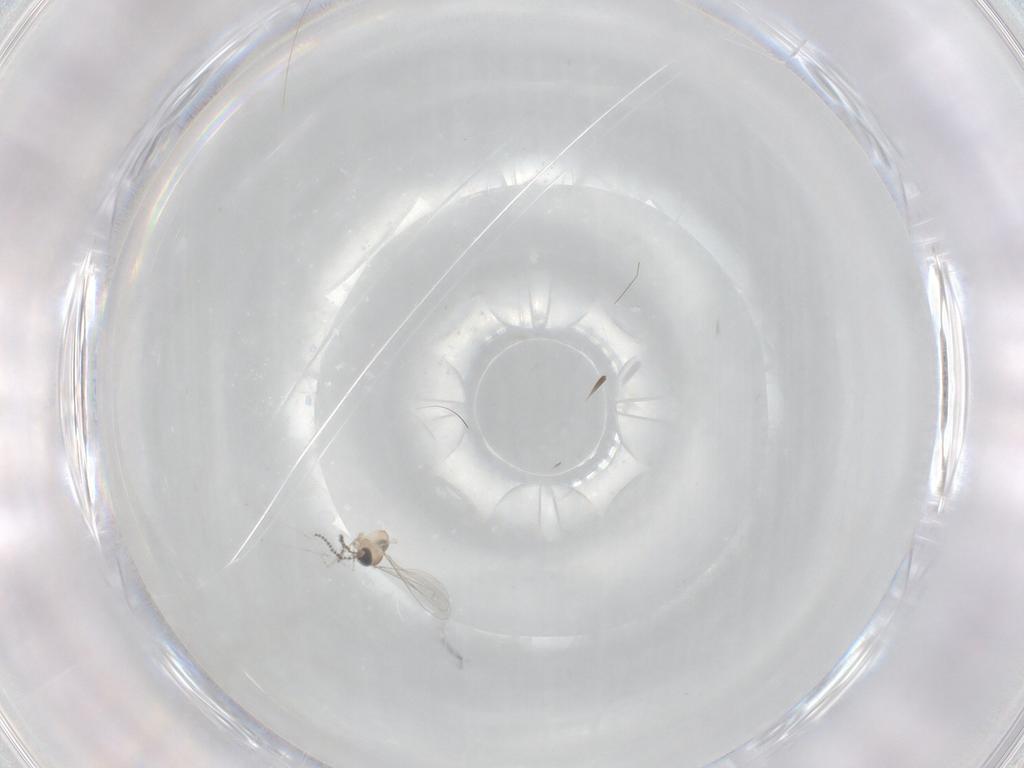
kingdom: Animalia
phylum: Arthropoda
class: Insecta
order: Diptera
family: Cecidomyiidae
